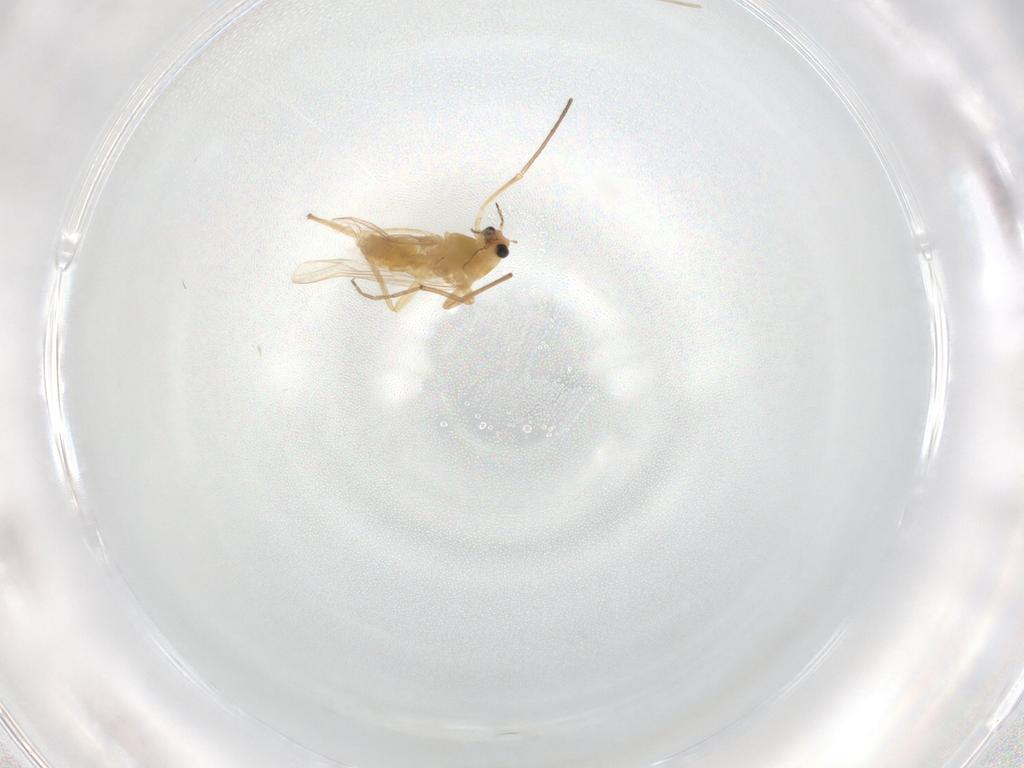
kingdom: Animalia
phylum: Arthropoda
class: Insecta
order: Diptera
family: Chironomidae
